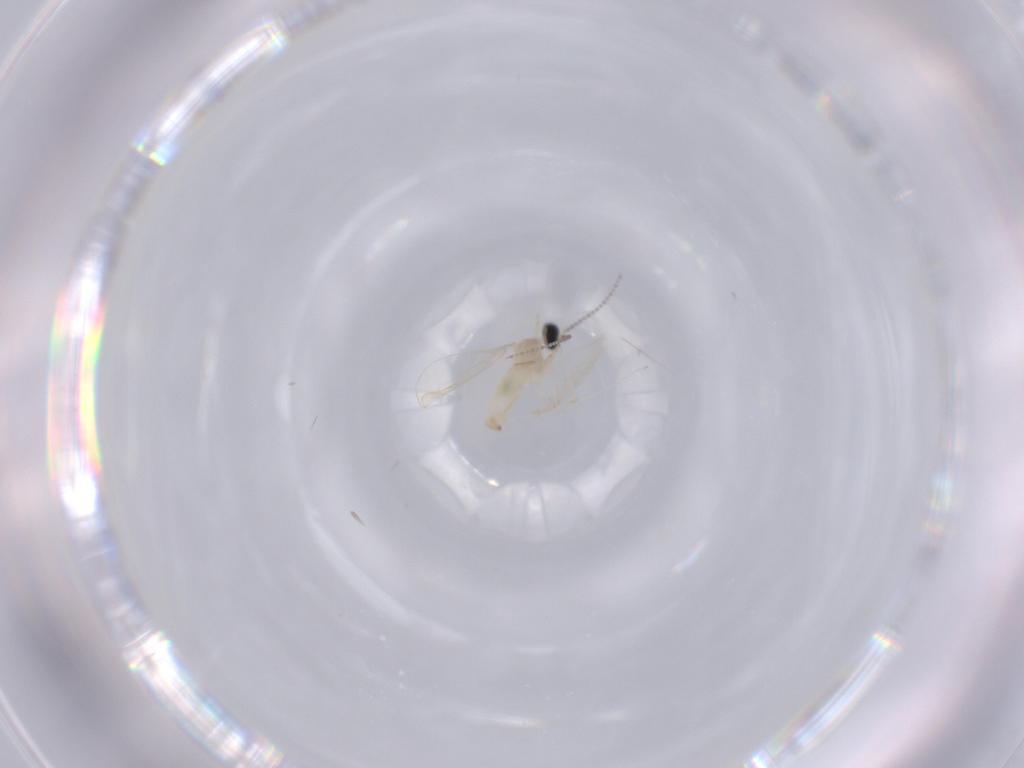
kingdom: Animalia
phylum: Arthropoda
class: Insecta
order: Diptera
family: Cecidomyiidae
